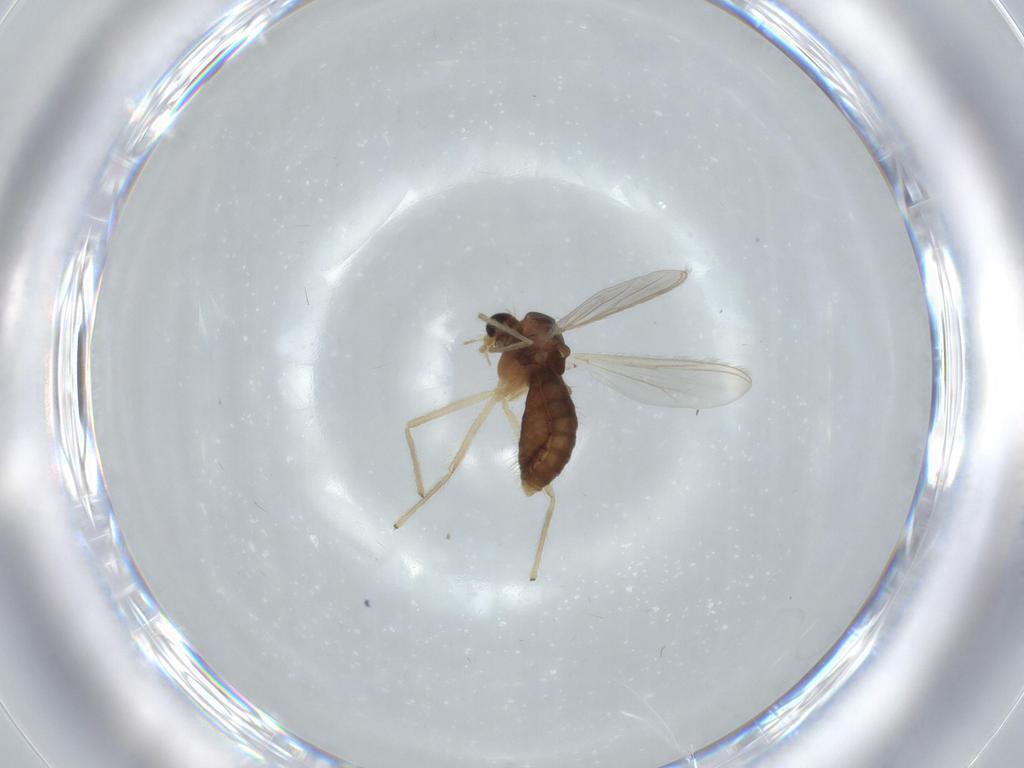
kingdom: Animalia
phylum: Arthropoda
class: Insecta
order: Diptera
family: Chironomidae
